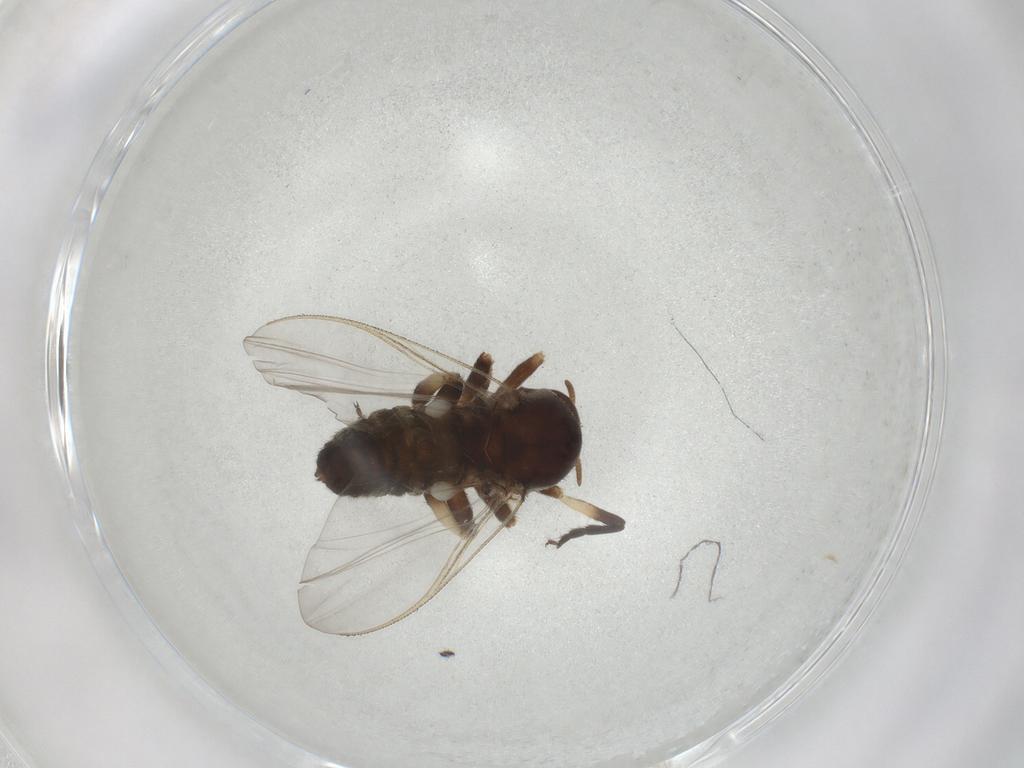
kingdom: Animalia
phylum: Arthropoda
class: Insecta
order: Diptera
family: Simuliidae
